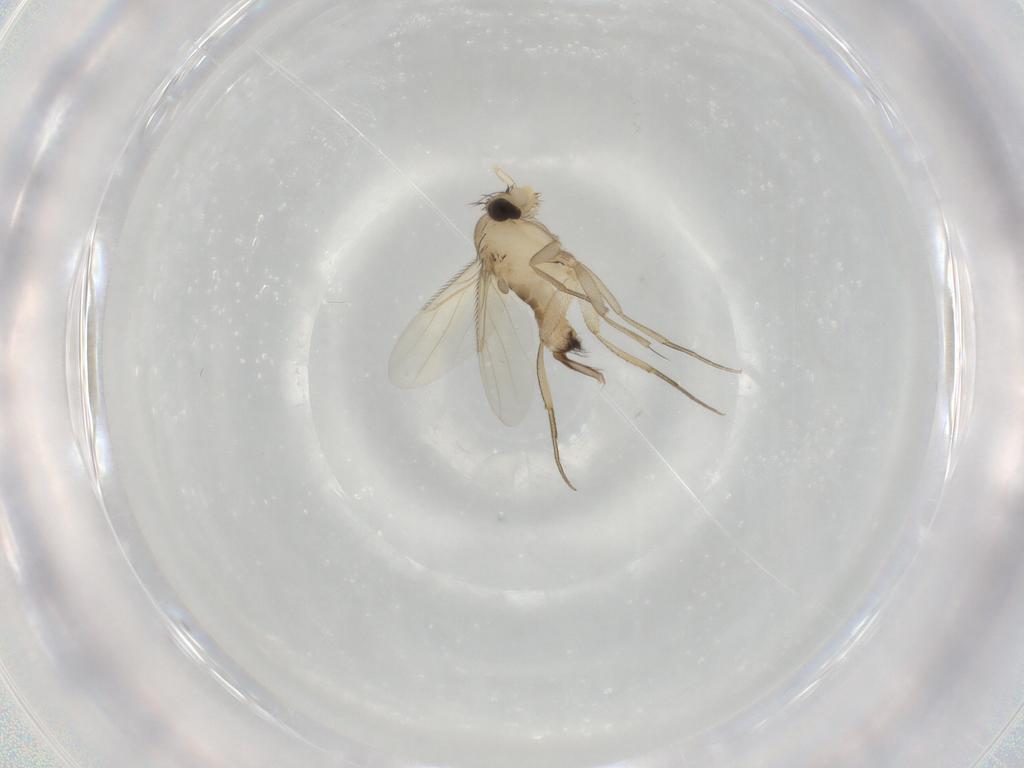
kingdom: Animalia
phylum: Arthropoda
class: Insecta
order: Diptera
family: Phoridae
